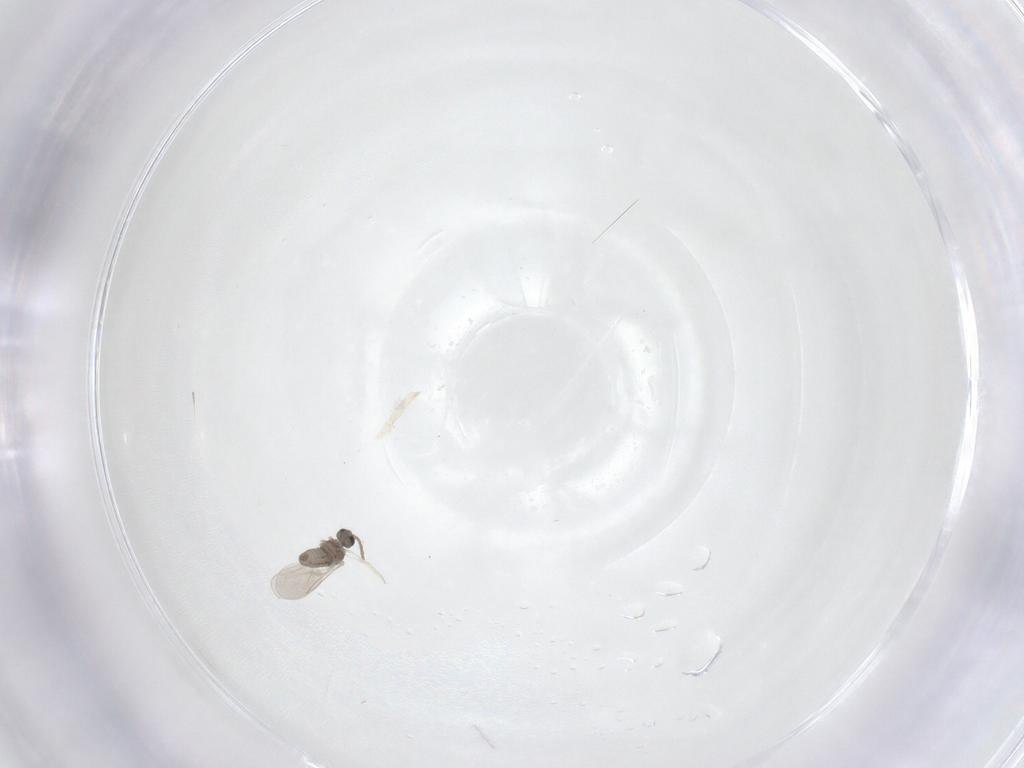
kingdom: Animalia
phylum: Arthropoda
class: Insecta
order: Diptera
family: Cecidomyiidae
